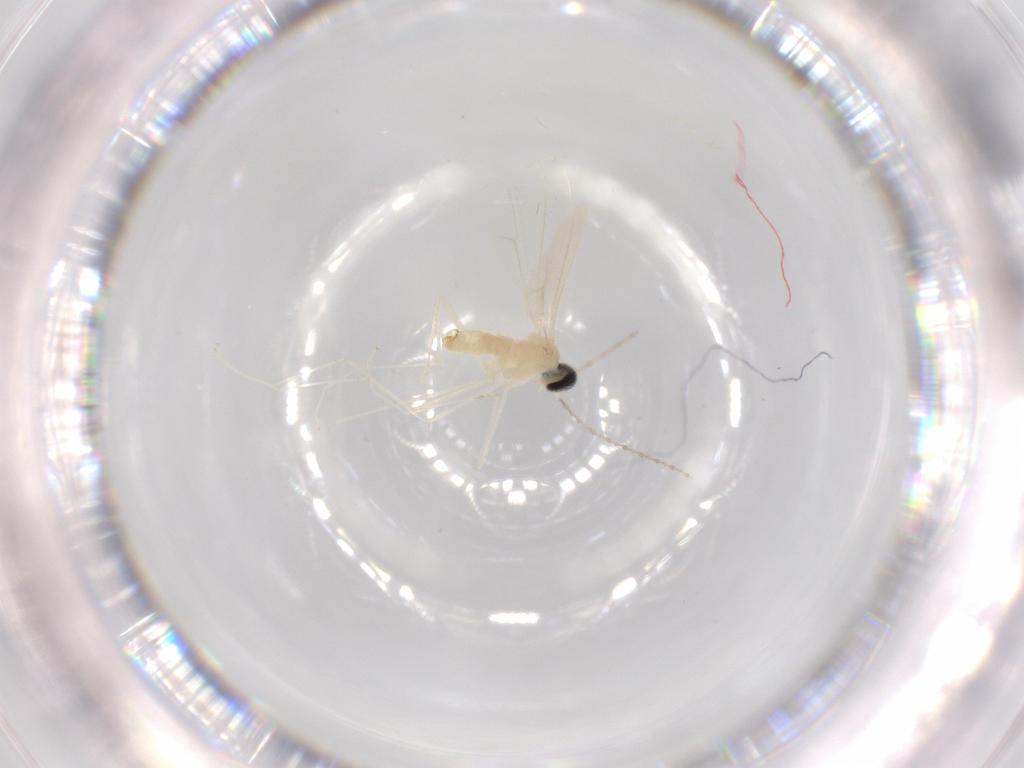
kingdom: Animalia
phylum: Arthropoda
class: Insecta
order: Diptera
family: Cecidomyiidae
